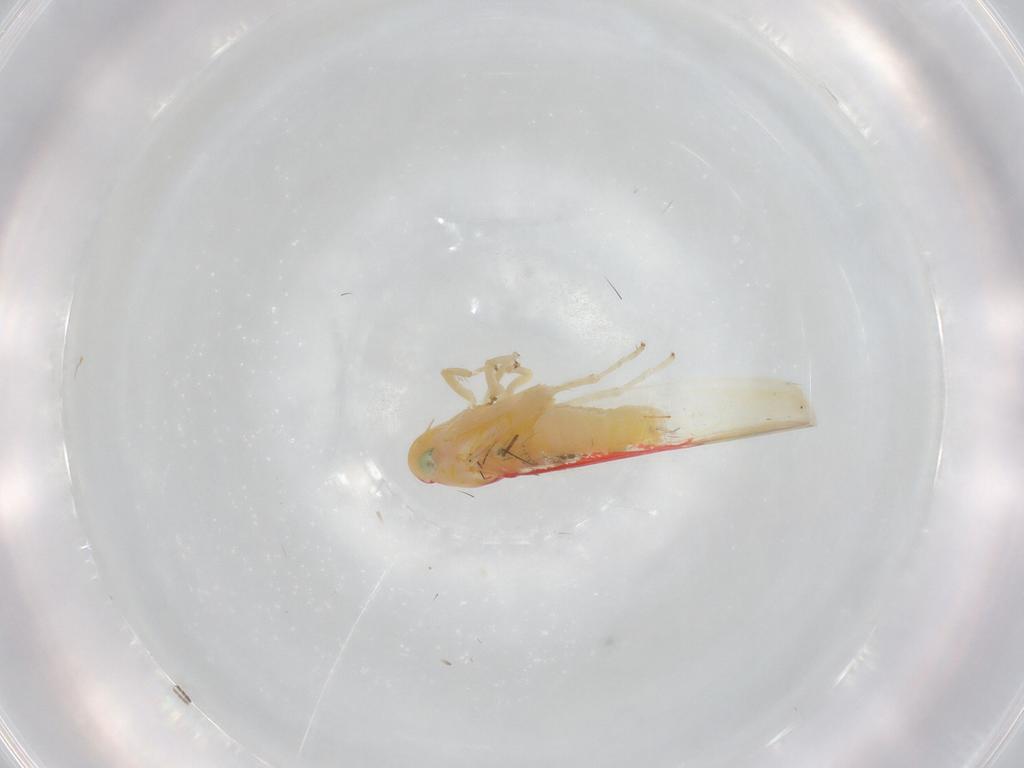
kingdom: Animalia
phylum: Arthropoda
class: Insecta
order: Hemiptera
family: Cicadellidae
